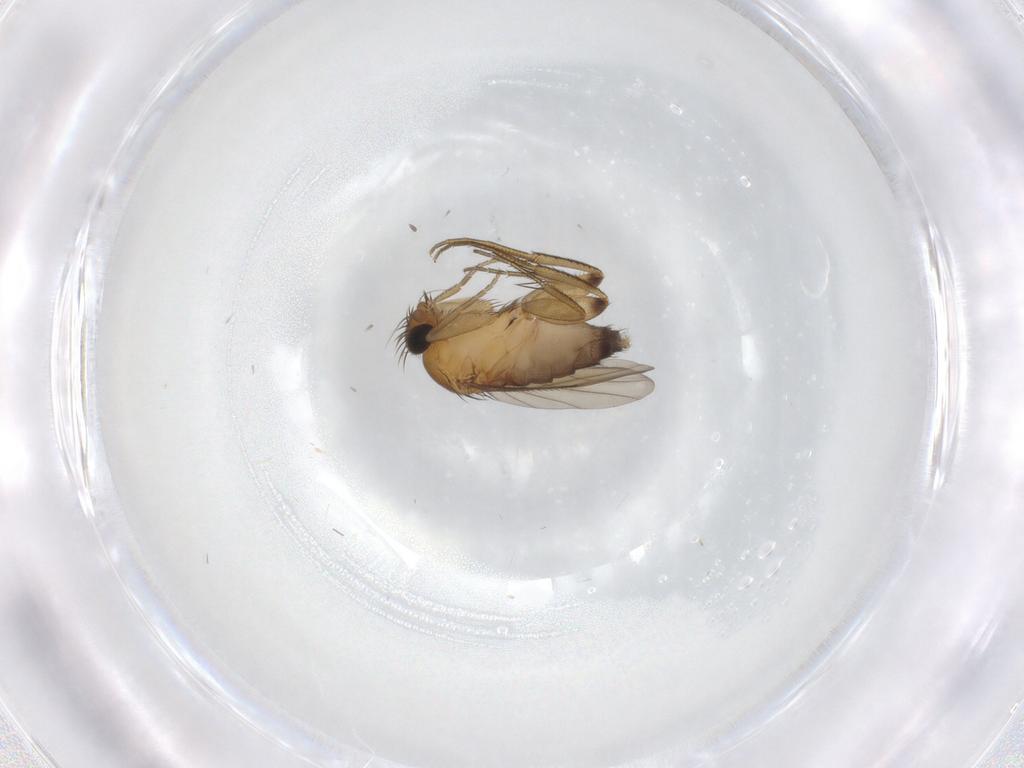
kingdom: Animalia
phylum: Arthropoda
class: Insecta
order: Diptera
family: Phoridae
